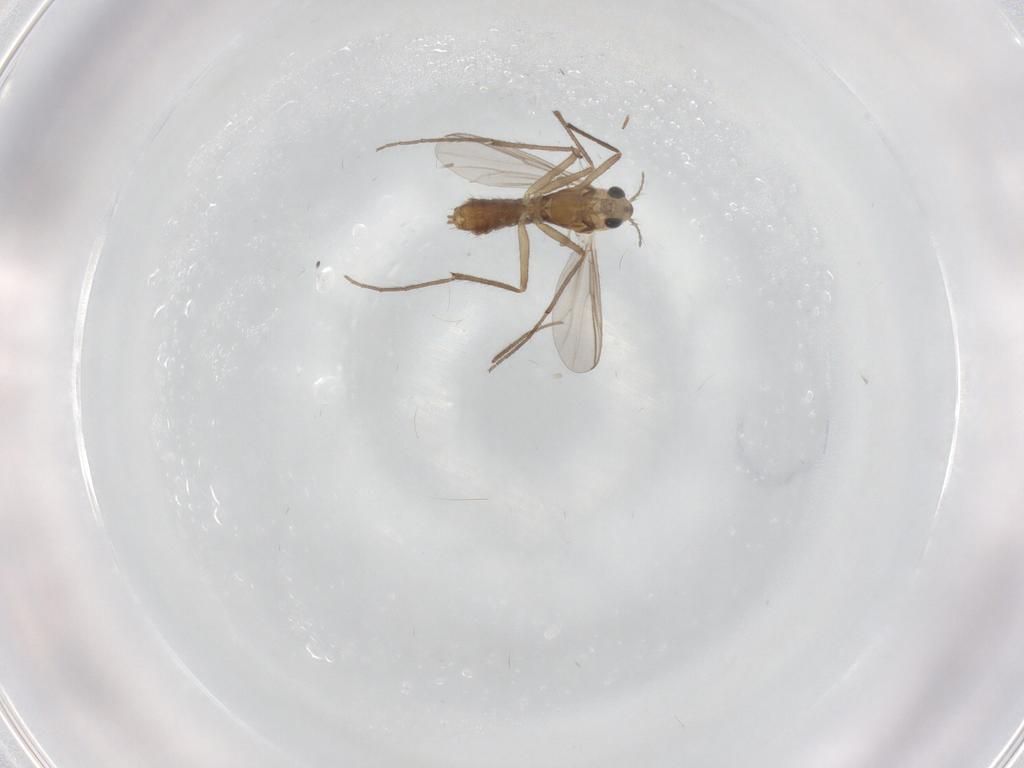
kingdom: Animalia
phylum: Arthropoda
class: Insecta
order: Diptera
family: Chironomidae
